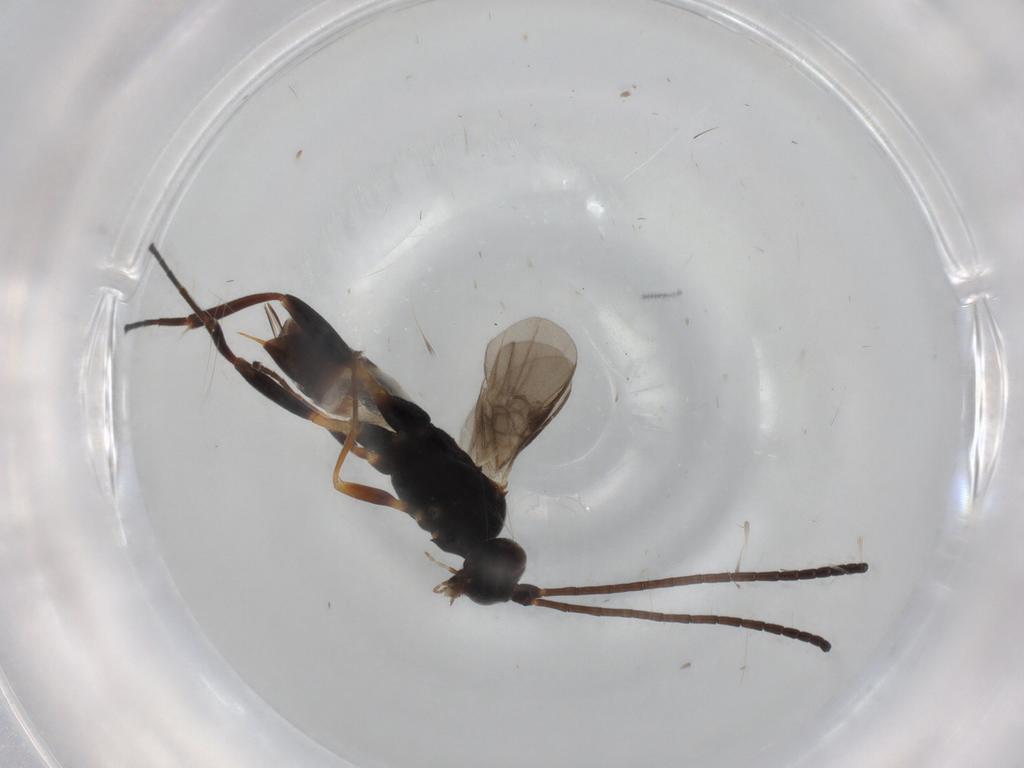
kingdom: Animalia
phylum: Arthropoda
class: Insecta
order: Hymenoptera
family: Braconidae
